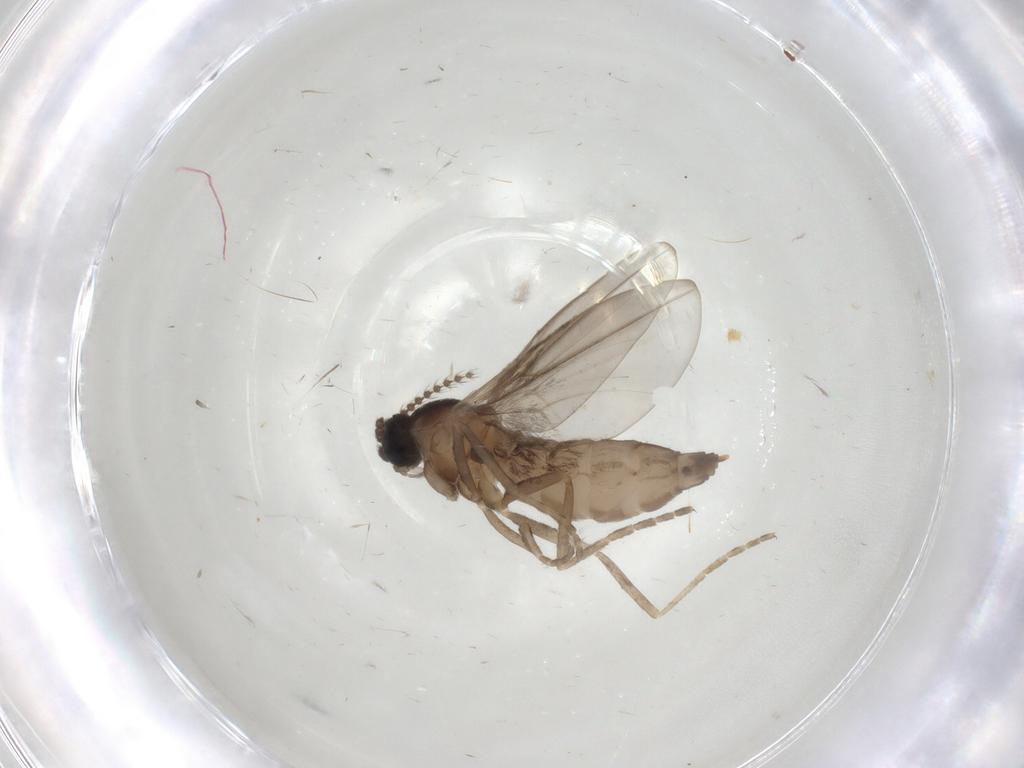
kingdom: Animalia
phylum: Arthropoda
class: Insecta
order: Diptera
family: Cecidomyiidae
